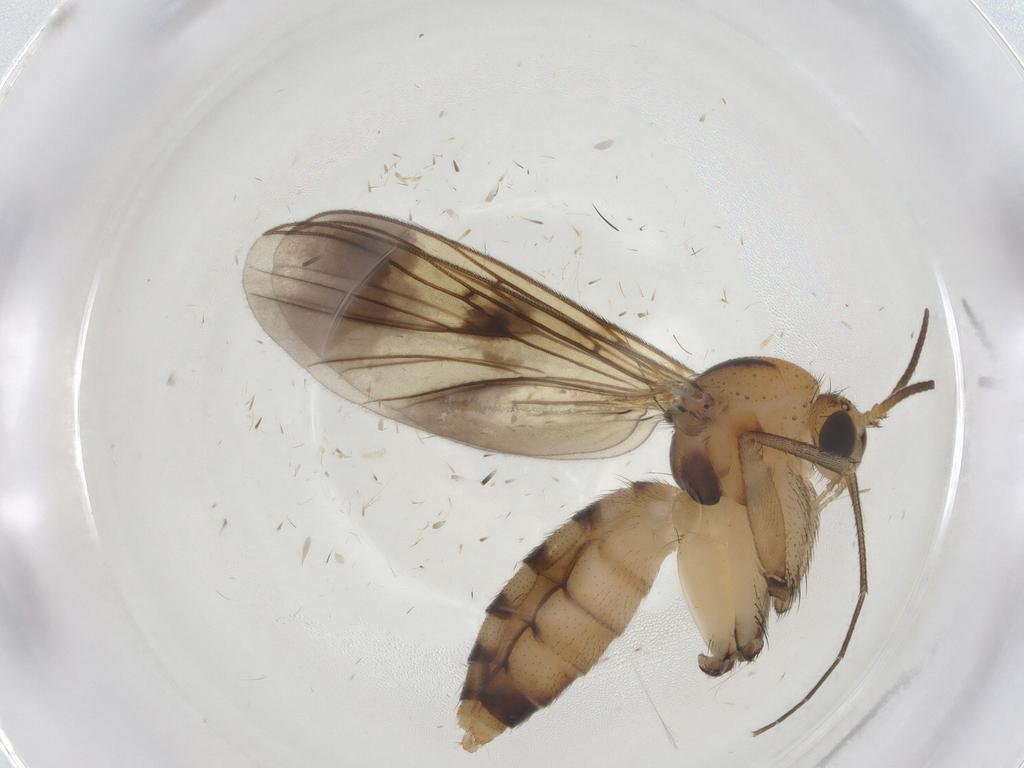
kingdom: Animalia
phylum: Arthropoda
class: Insecta
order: Diptera
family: Mycetophilidae
